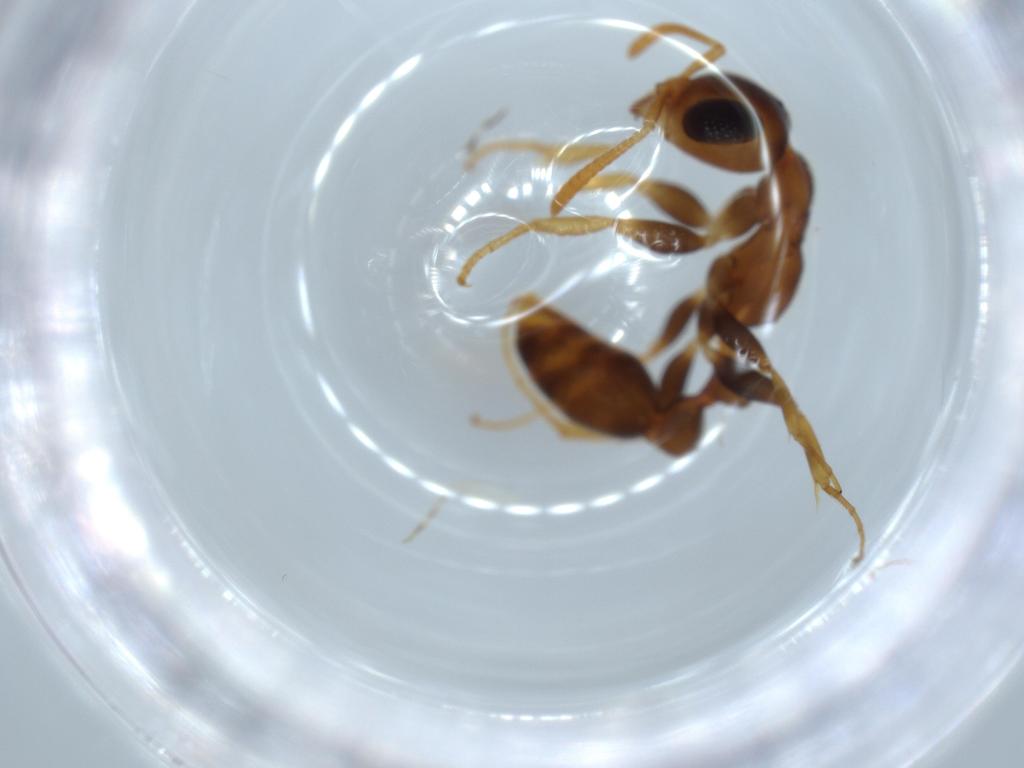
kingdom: Animalia
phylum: Arthropoda
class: Insecta
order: Hymenoptera
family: Formicidae
